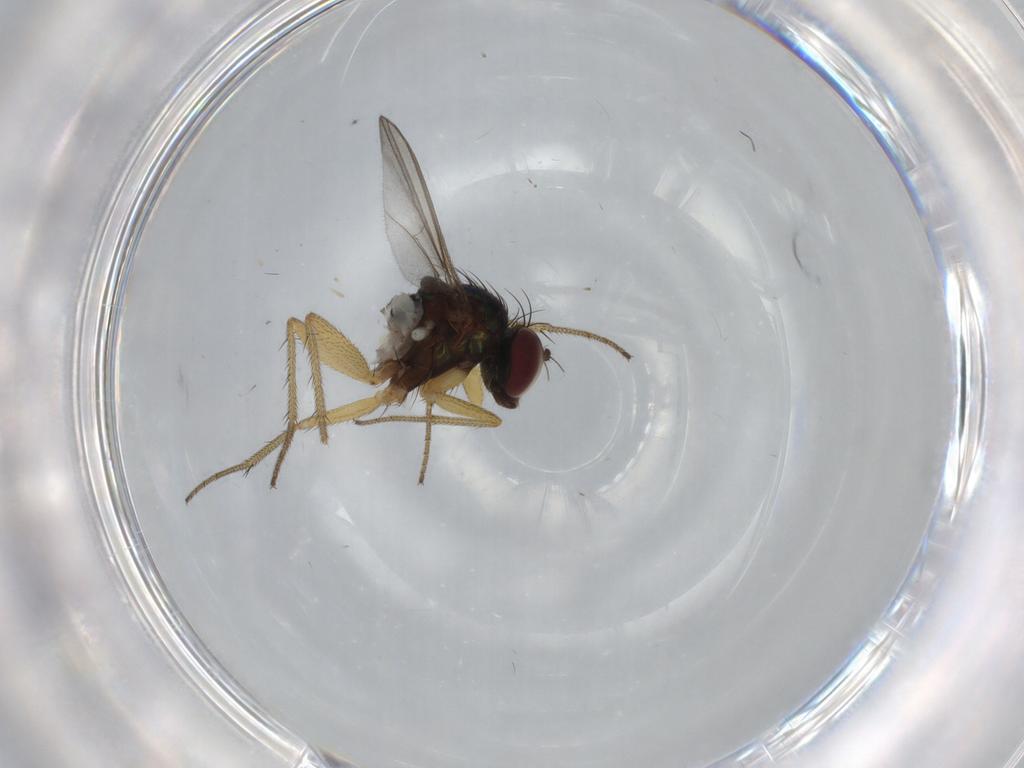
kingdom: Animalia
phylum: Arthropoda
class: Insecta
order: Diptera
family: Dolichopodidae
